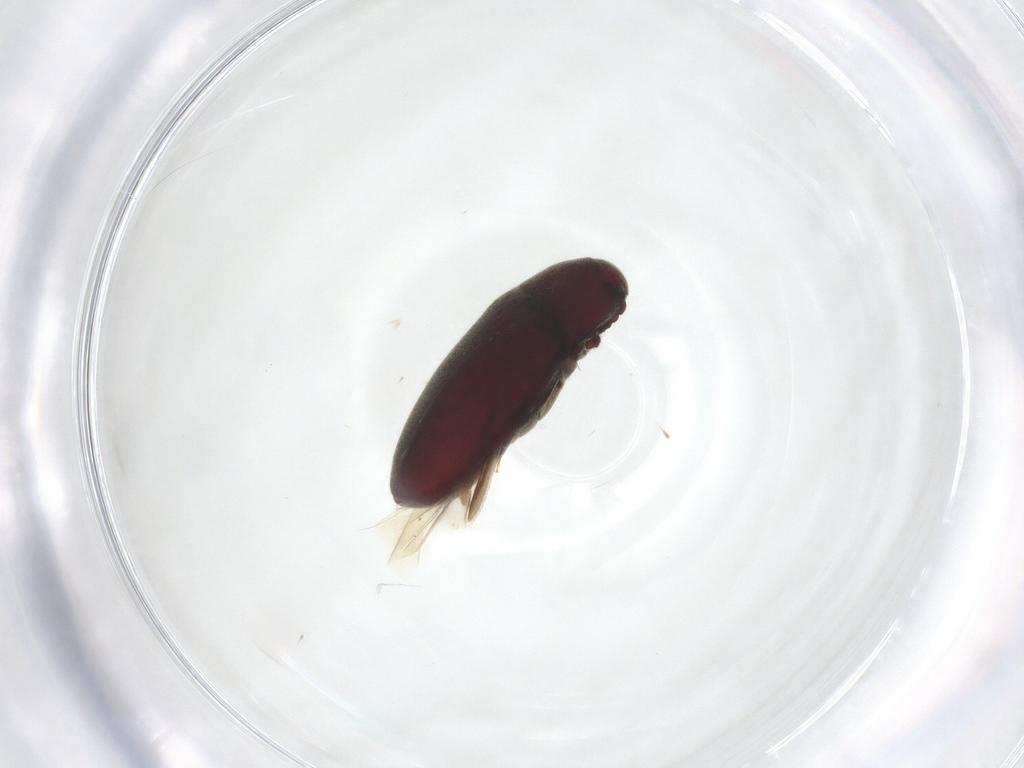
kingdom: Animalia
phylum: Arthropoda
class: Insecta
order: Coleoptera
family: Throscidae
